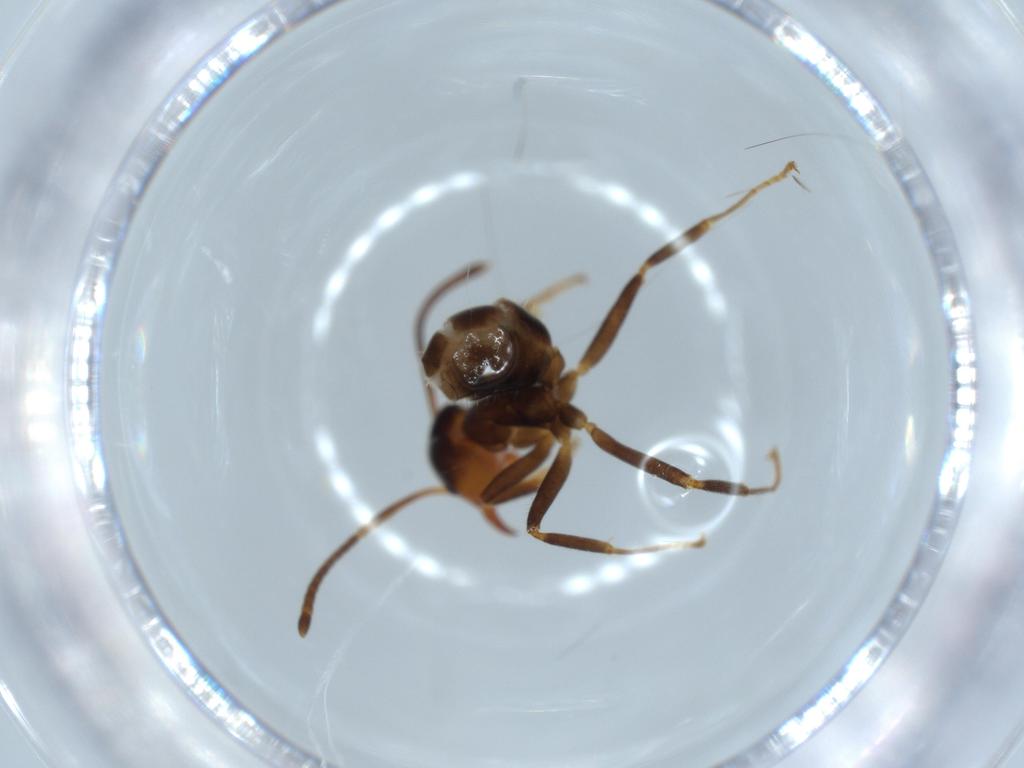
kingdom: Animalia
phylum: Arthropoda
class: Insecta
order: Hymenoptera
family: Formicidae
